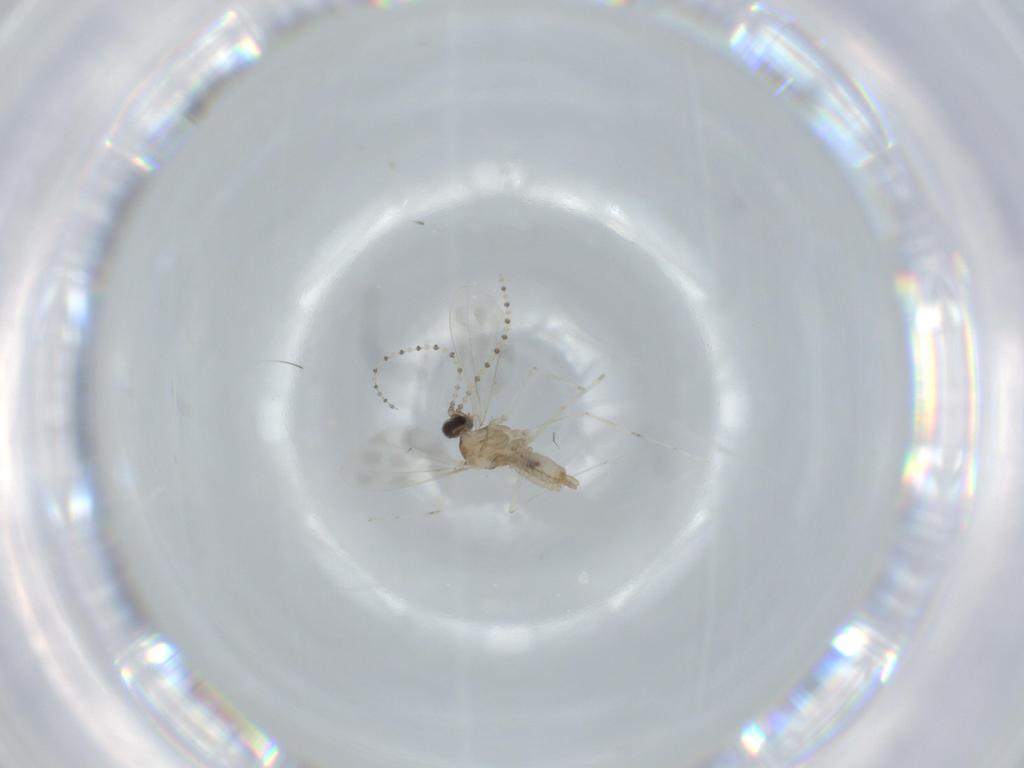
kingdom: Animalia
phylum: Arthropoda
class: Insecta
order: Diptera
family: Cecidomyiidae
